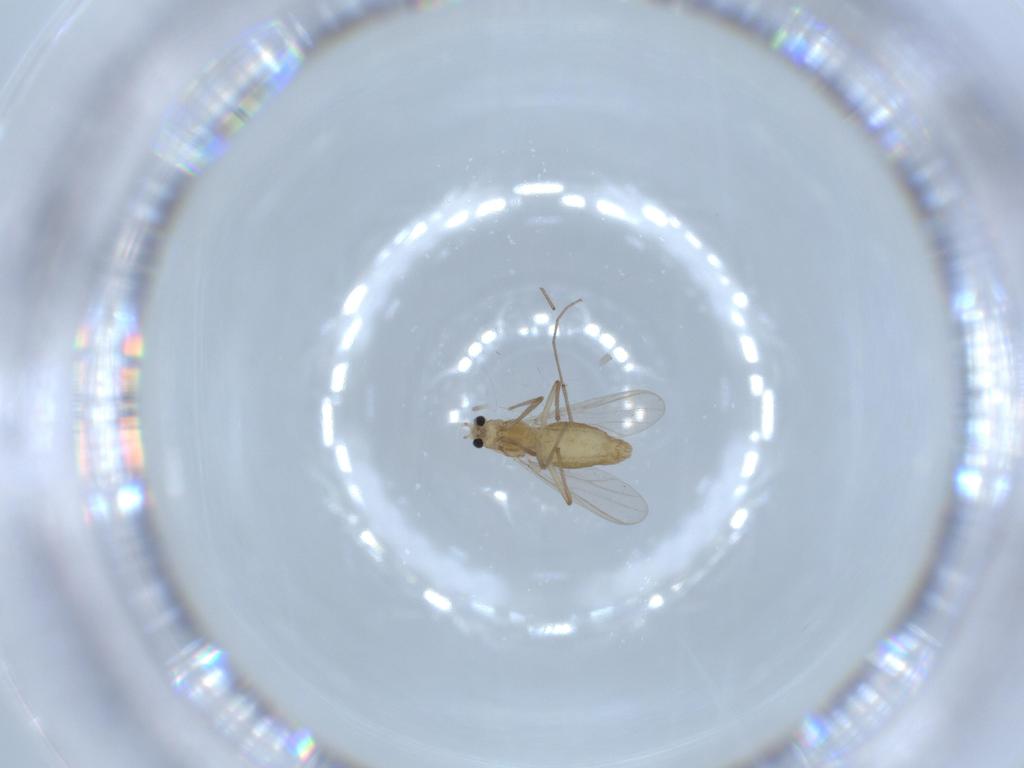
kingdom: Animalia
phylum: Arthropoda
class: Insecta
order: Diptera
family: Chironomidae
